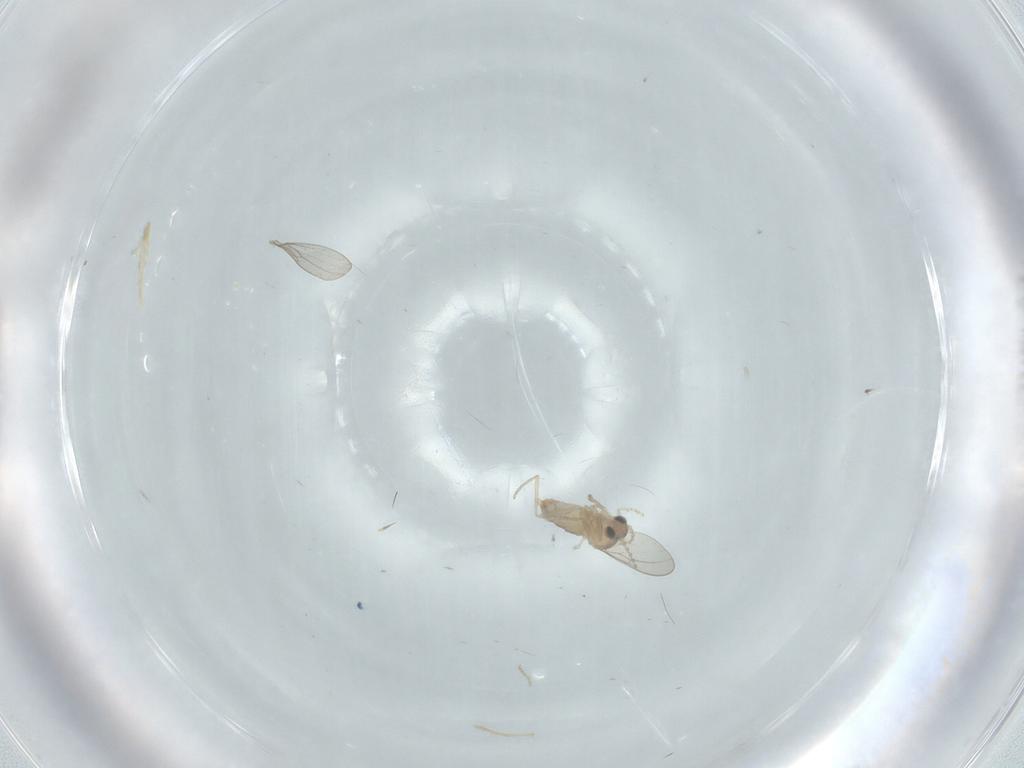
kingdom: Animalia
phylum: Arthropoda
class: Insecta
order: Diptera
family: Cecidomyiidae
